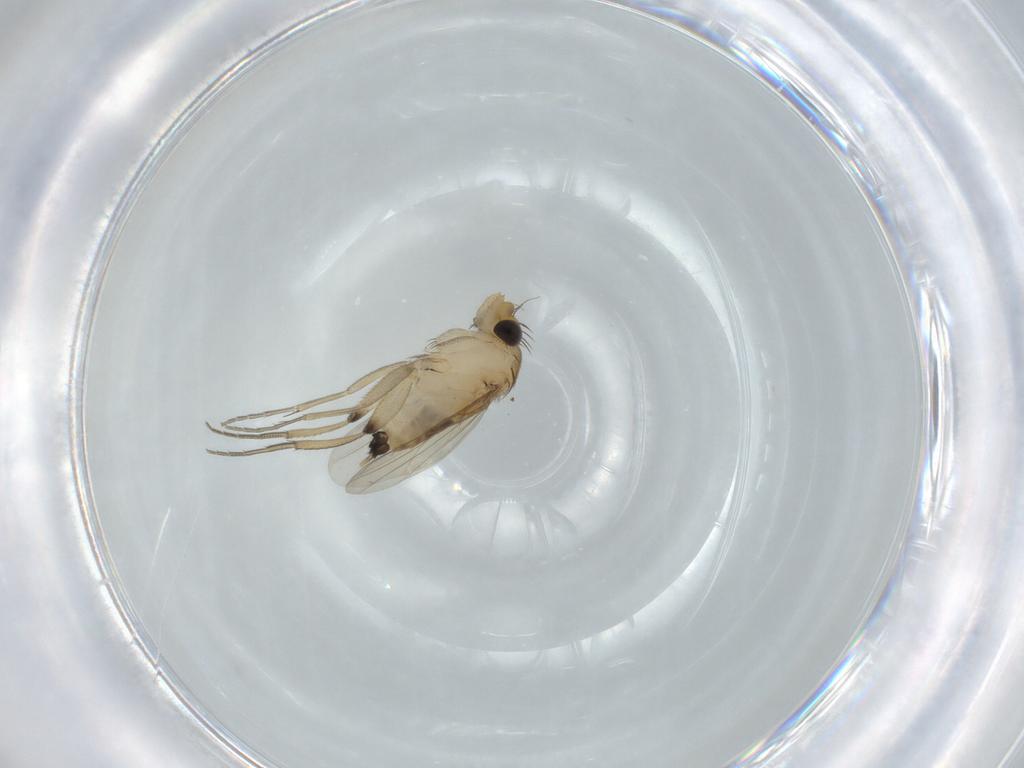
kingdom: Animalia
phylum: Arthropoda
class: Insecta
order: Diptera
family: Phoridae
